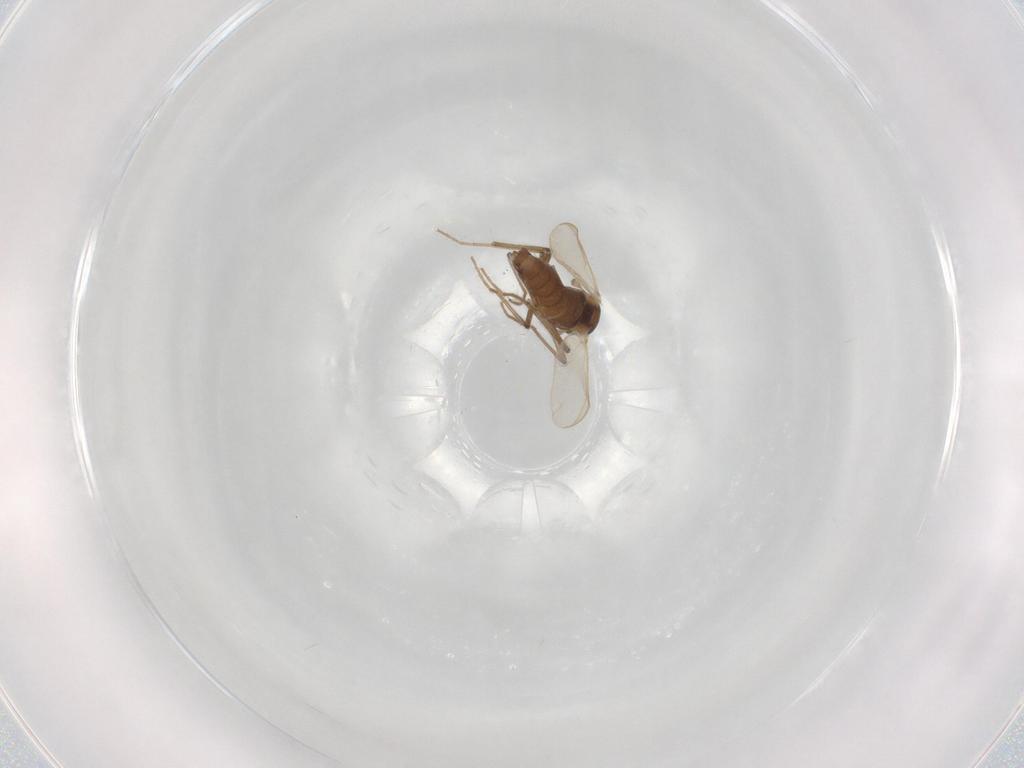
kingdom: Animalia
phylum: Arthropoda
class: Insecta
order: Diptera
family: Chironomidae
